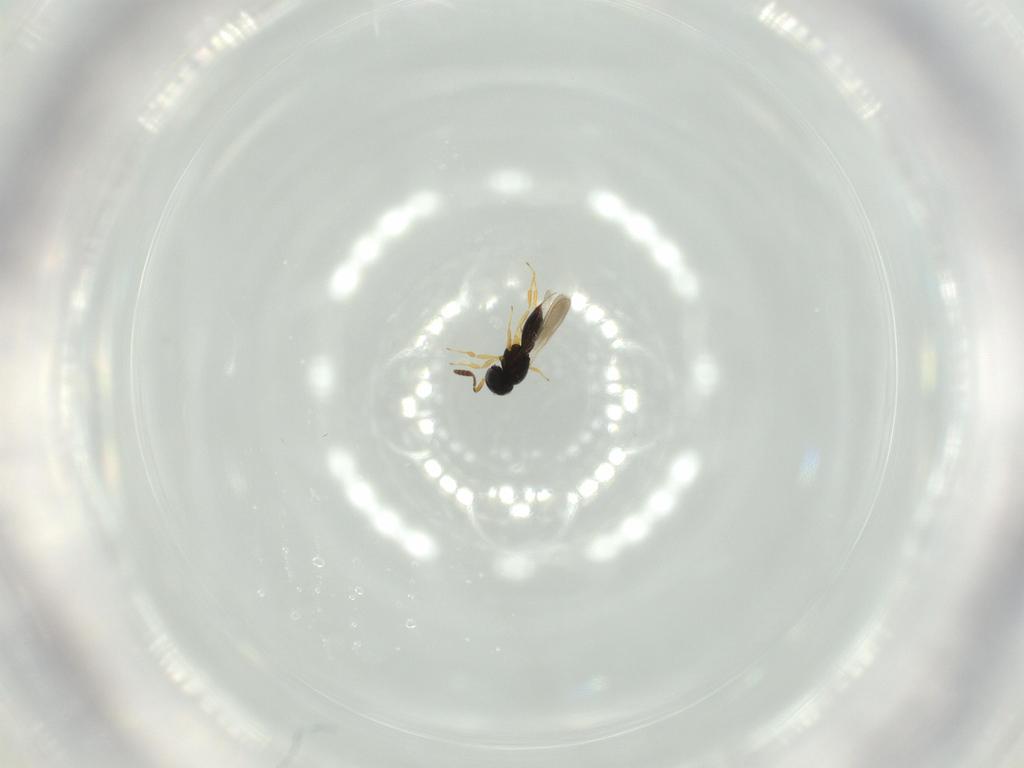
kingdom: Animalia
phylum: Arthropoda
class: Insecta
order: Hymenoptera
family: Scelionidae
